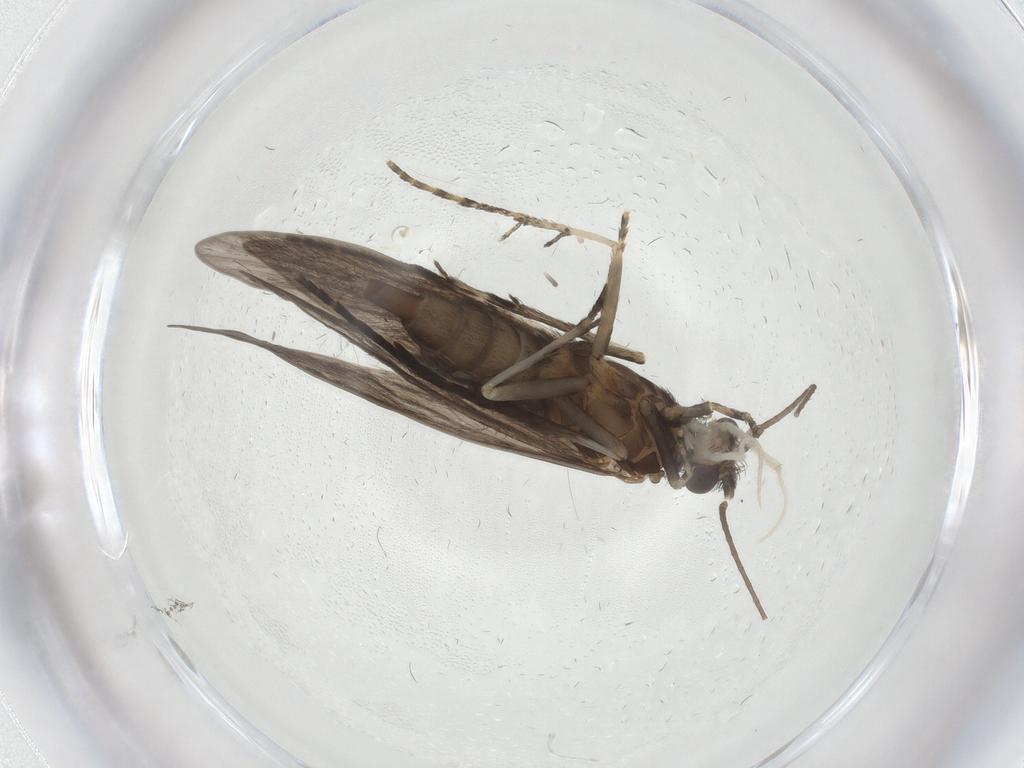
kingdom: Animalia
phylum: Arthropoda
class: Insecta
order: Trichoptera
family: Xiphocentronidae
